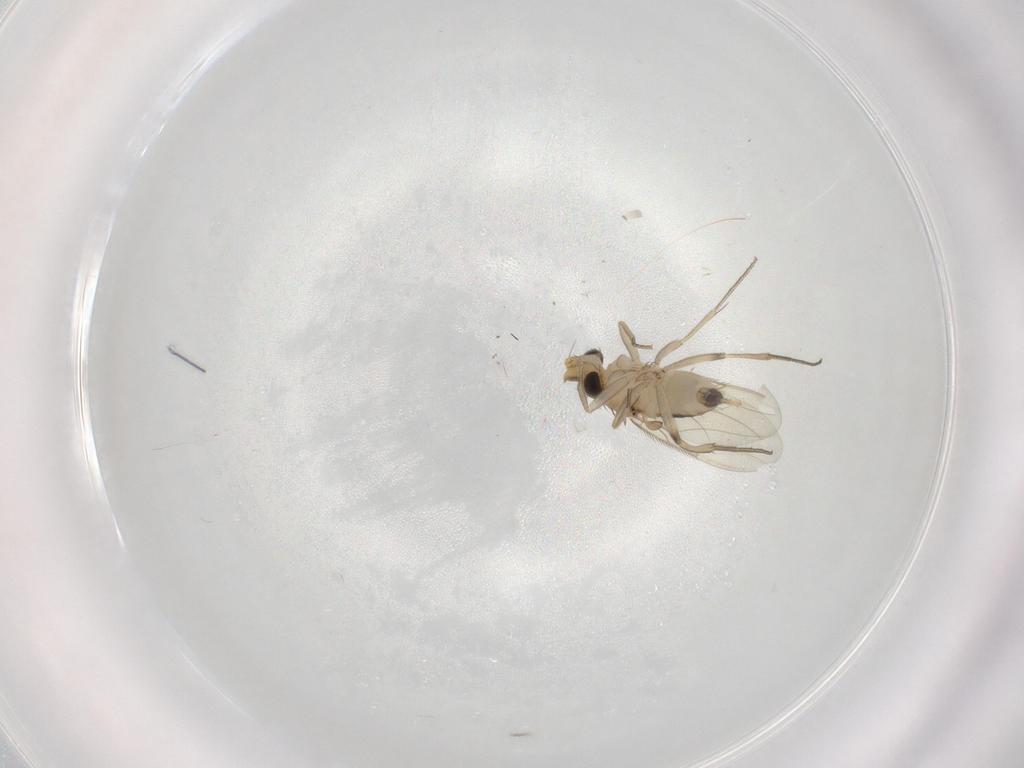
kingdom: Animalia
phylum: Arthropoda
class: Insecta
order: Diptera
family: Phoridae
